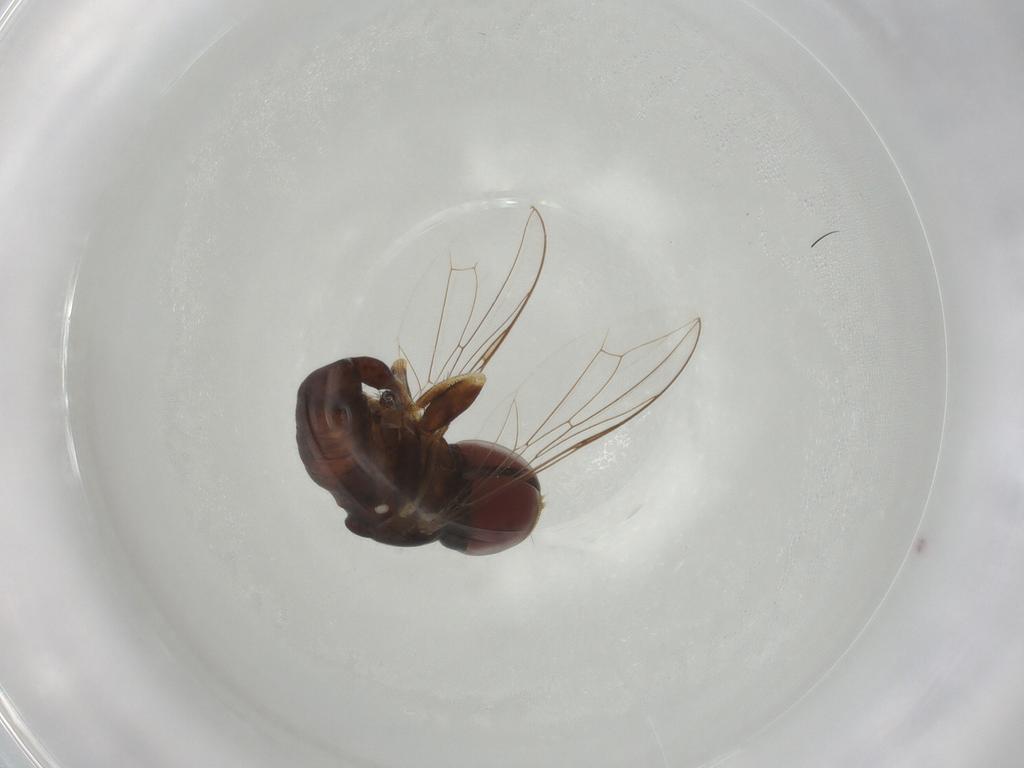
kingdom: Animalia
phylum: Arthropoda
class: Insecta
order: Diptera
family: Pipunculidae
